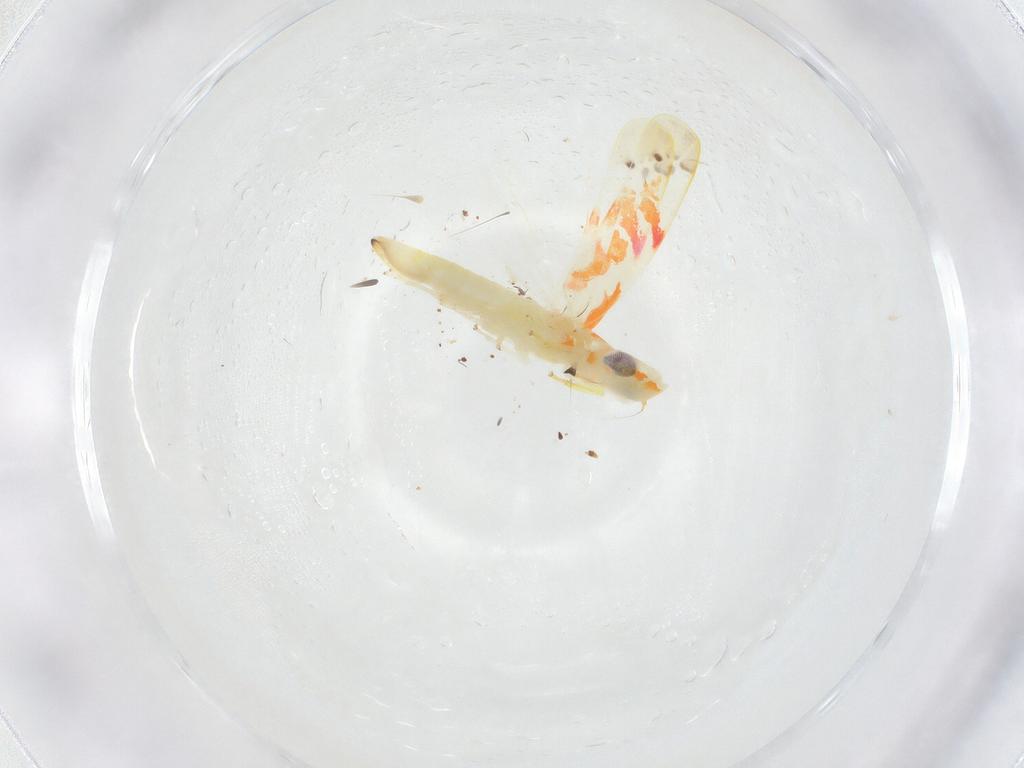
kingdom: Animalia
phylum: Arthropoda
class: Insecta
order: Hemiptera
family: Cicadellidae
